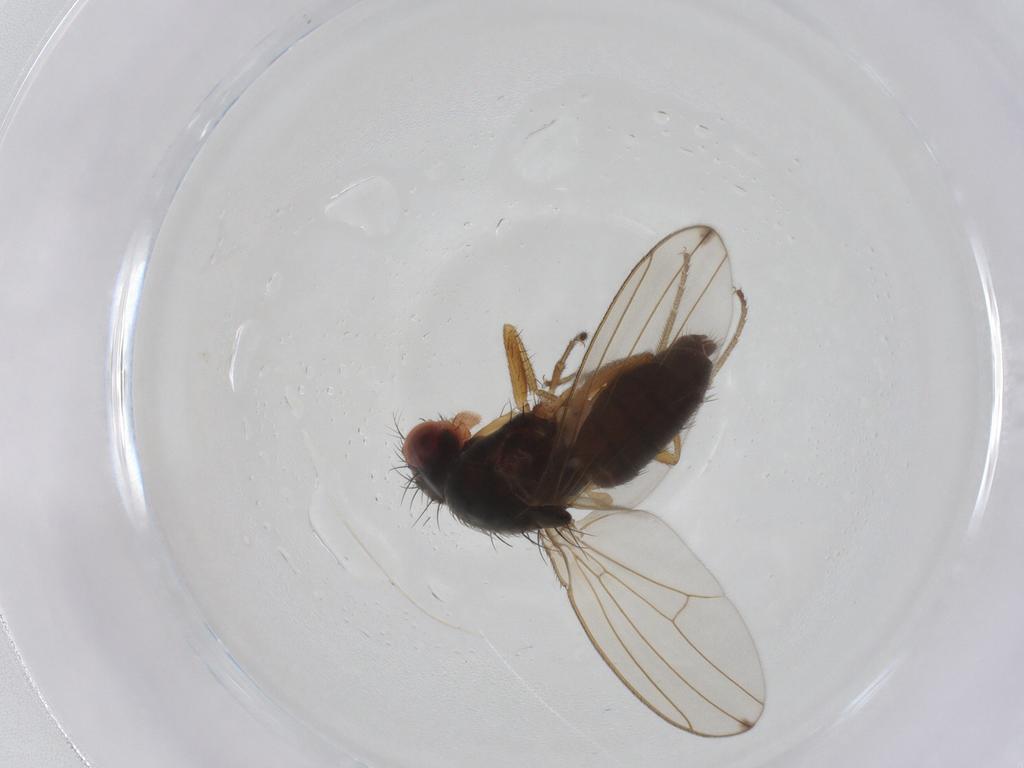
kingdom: Animalia
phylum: Arthropoda
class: Insecta
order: Diptera
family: Drosophilidae
